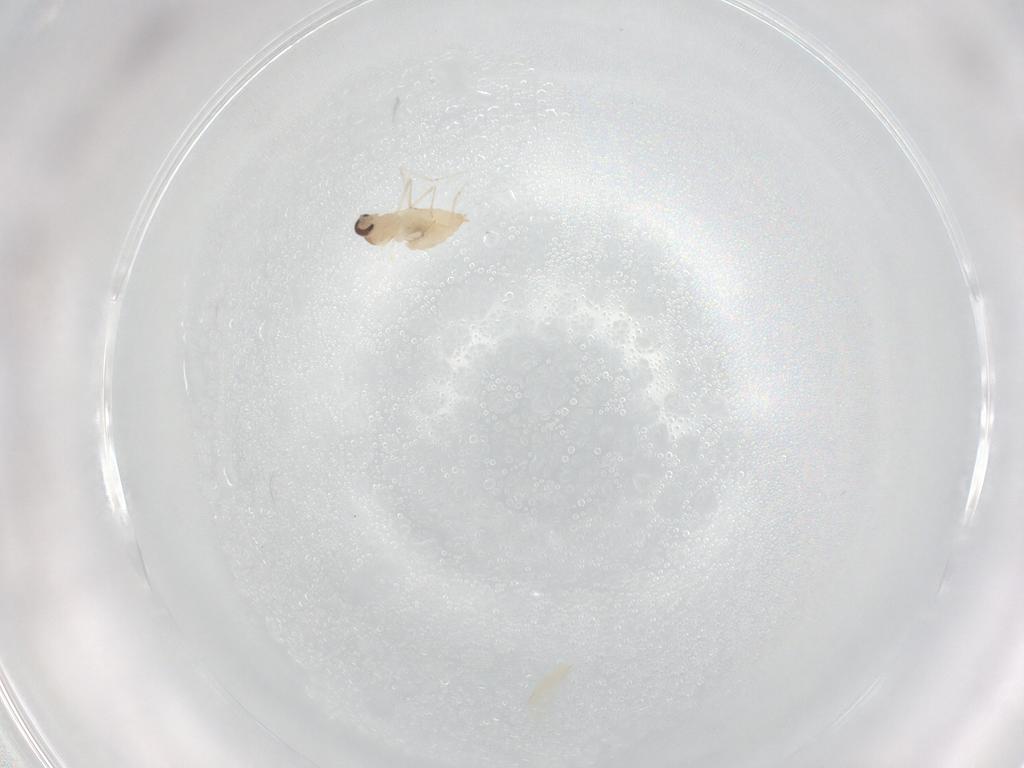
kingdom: Animalia
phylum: Arthropoda
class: Insecta
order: Diptera
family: Cecidomyiidae
